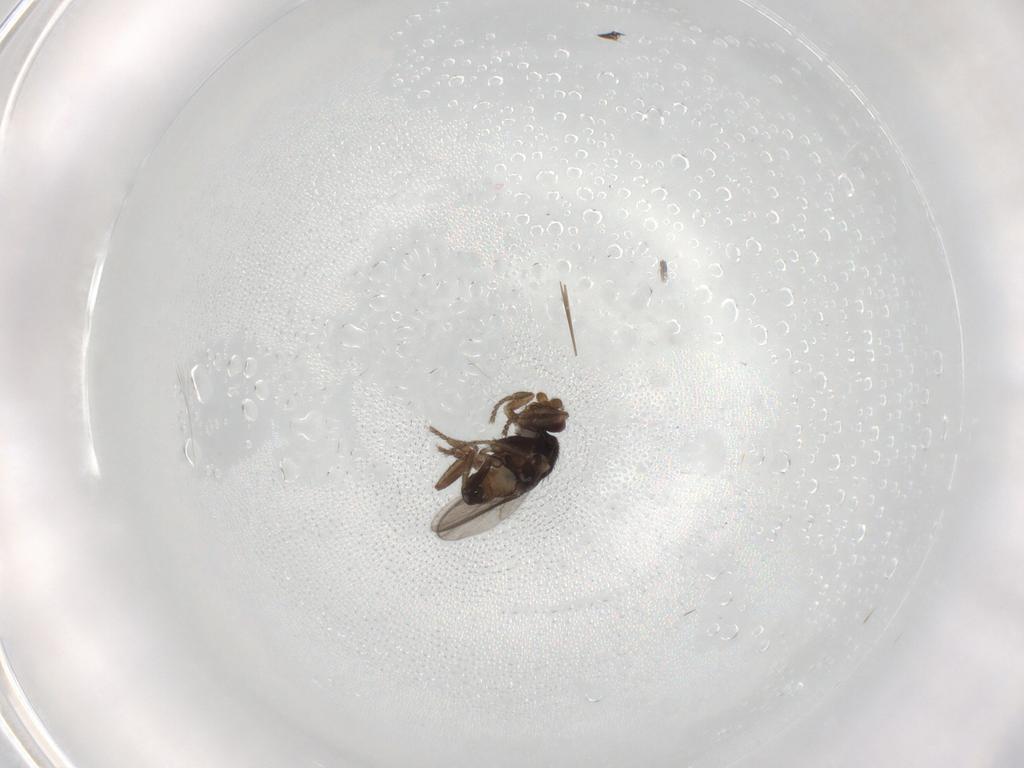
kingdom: Animalia
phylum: Arthropoda
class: Insecta
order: Diptera
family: Sphaeroceridae
